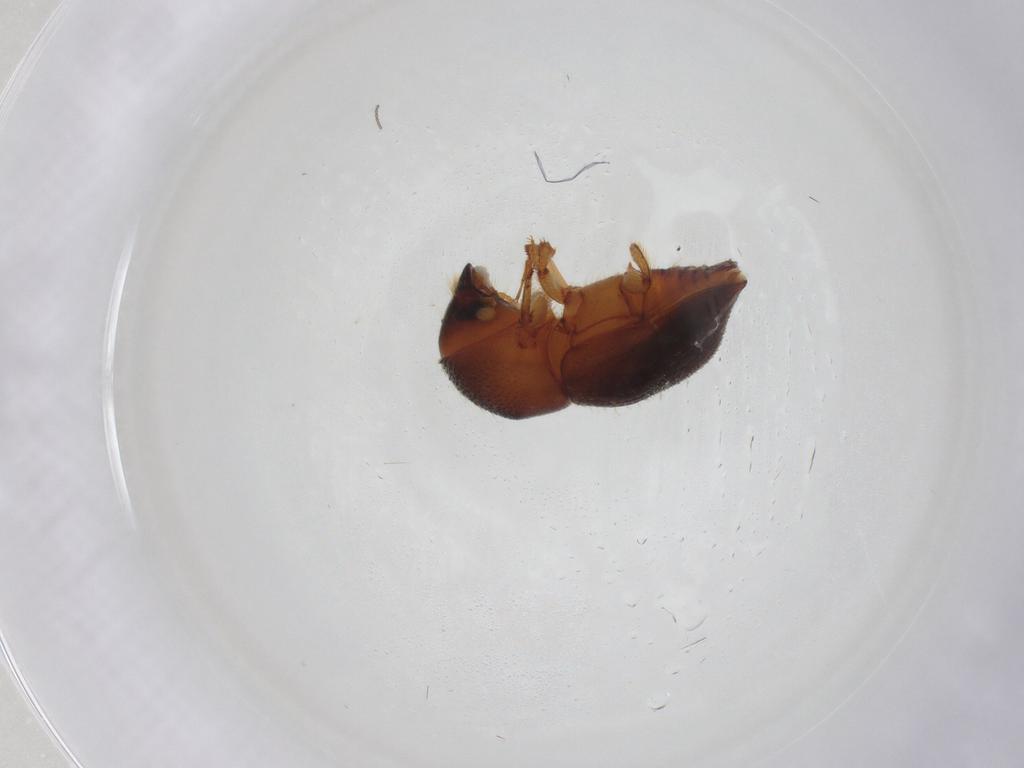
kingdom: Animalia
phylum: Arthropoda
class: Insecta
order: Coleoptera
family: Curculionidae
